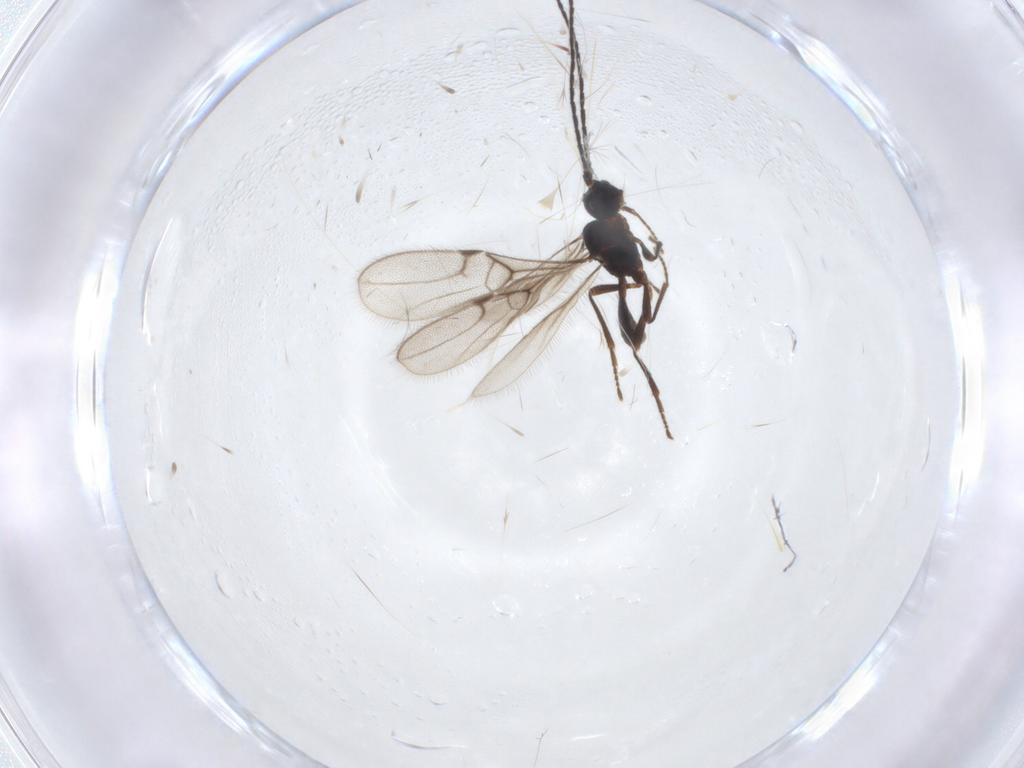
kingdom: Animalia
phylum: Arthropoda
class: Insecta
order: Hymenoptera
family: Braconidae
